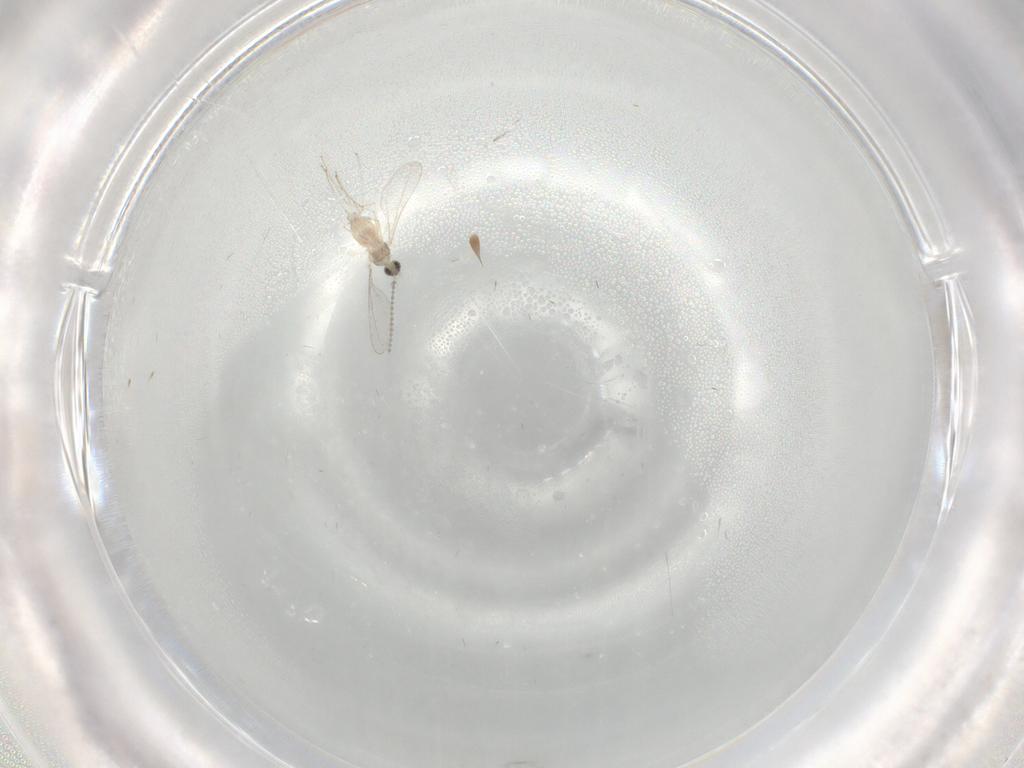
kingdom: Animalia
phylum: Arthropoda
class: Insecta
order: Diptera
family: Cecidomyiidae
